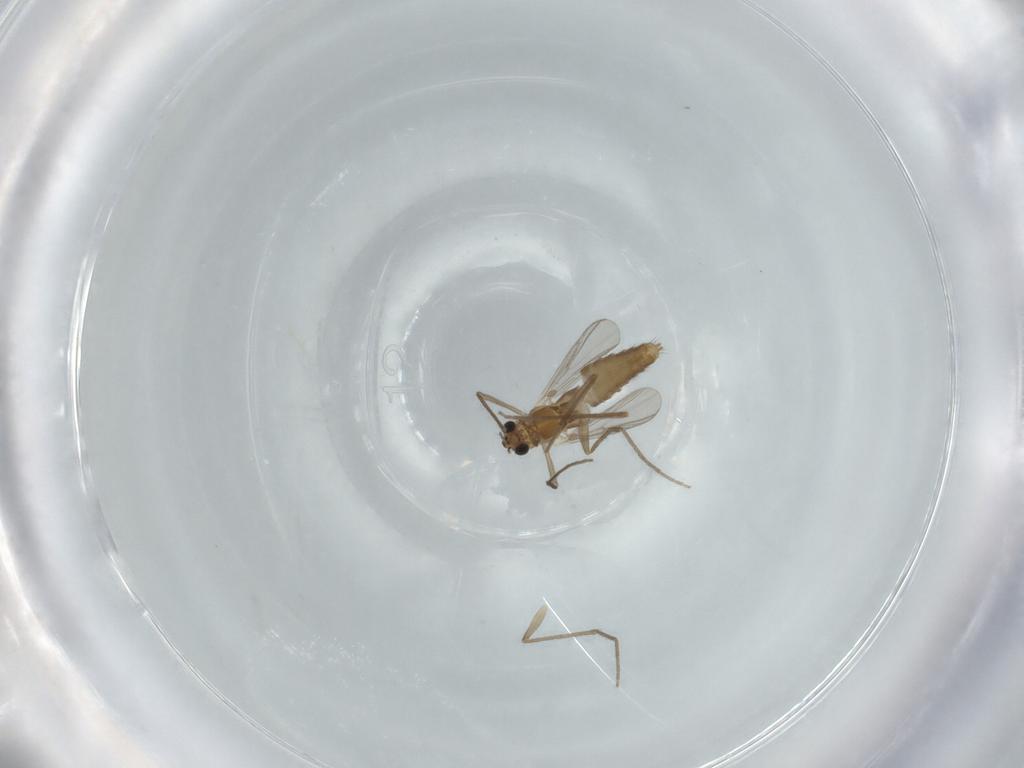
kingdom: Animalia
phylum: Arthropoda
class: Insecta
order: Diptera
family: Chironomidae
